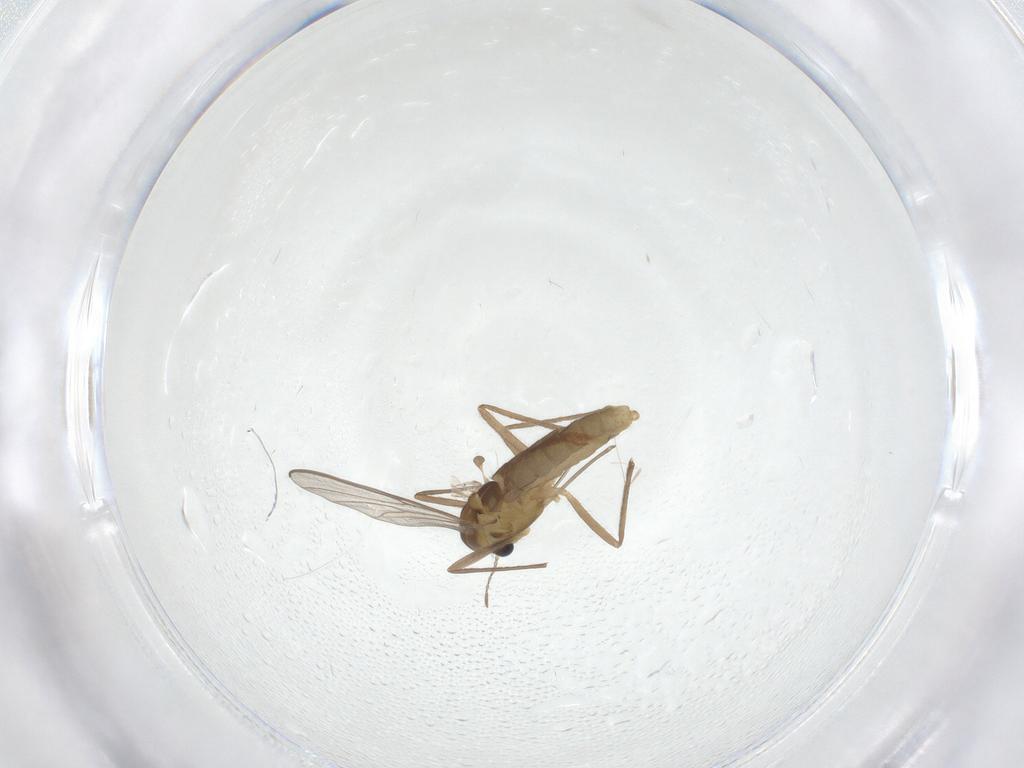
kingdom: Animalia
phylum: Arthropoda
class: Insecta
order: Diptera
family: Chironomidae
